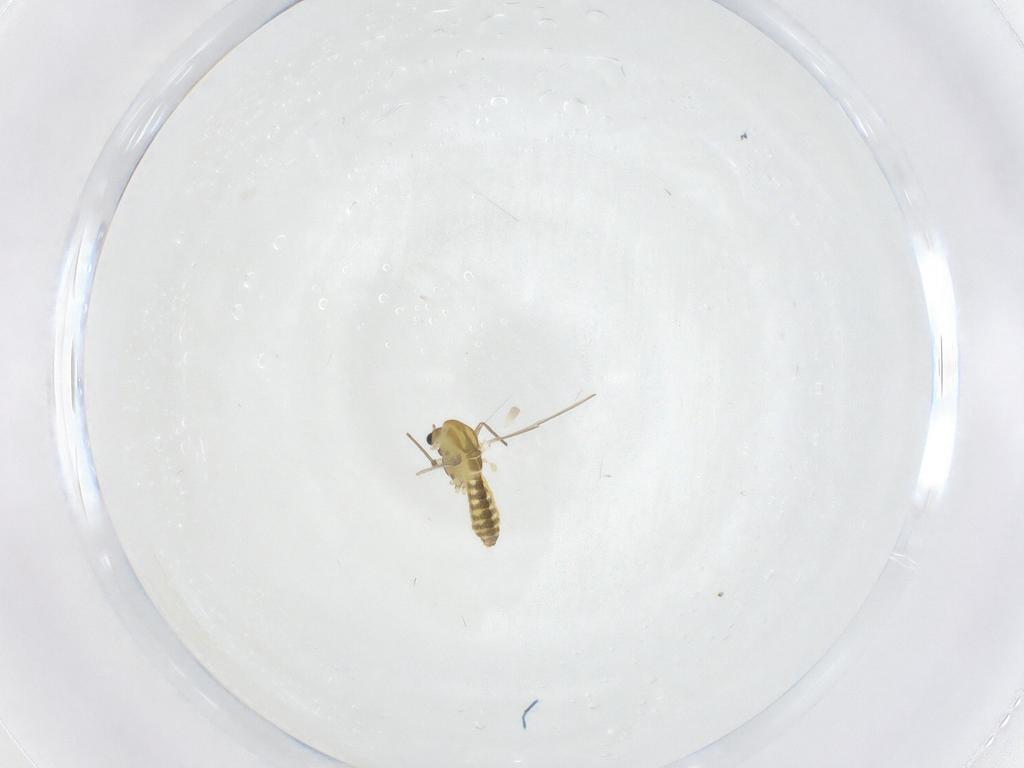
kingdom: Animalia
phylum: Arthropoda
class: Insecta
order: Diptera
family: Chironomidae
